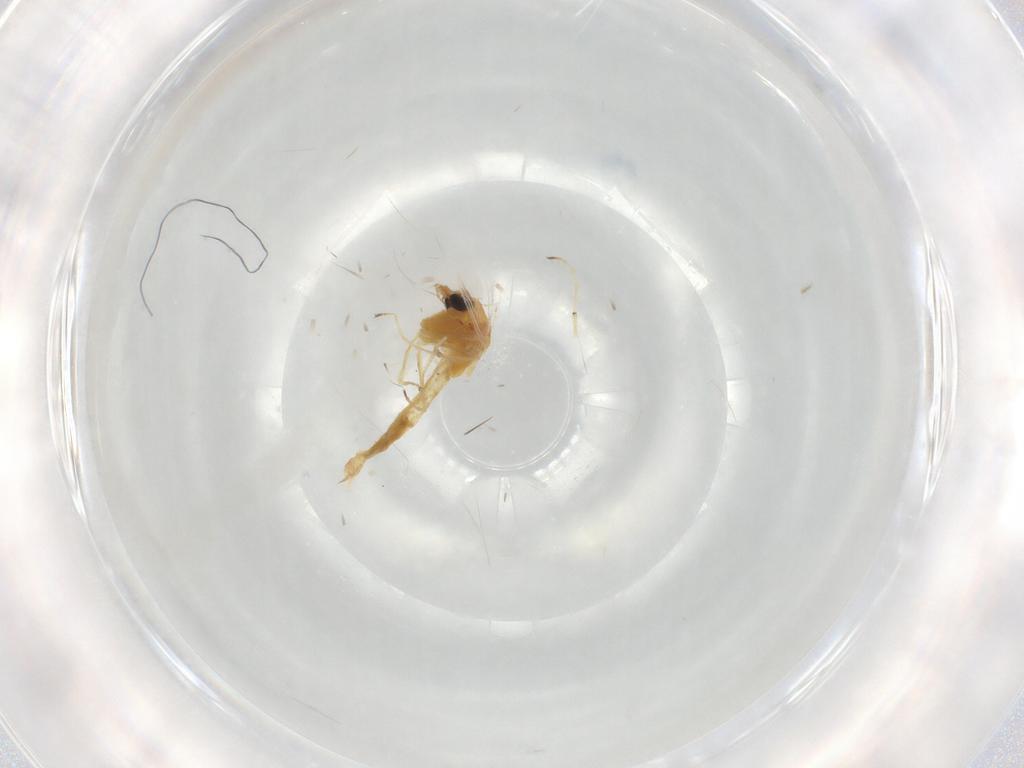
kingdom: Animalia
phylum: Arthropoda
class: Insecta
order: Diptera
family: Chironomidae
